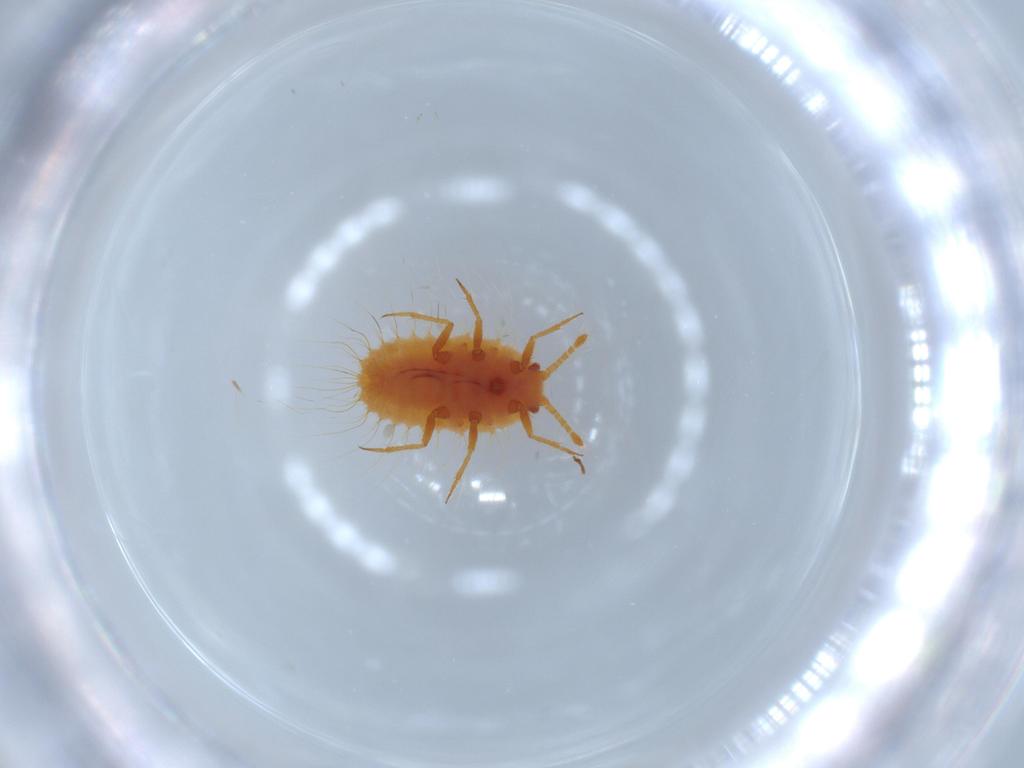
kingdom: Animalia
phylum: Arthropoda
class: Insecta
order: Hemiptera
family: Coccoidea_incertae_sedis
